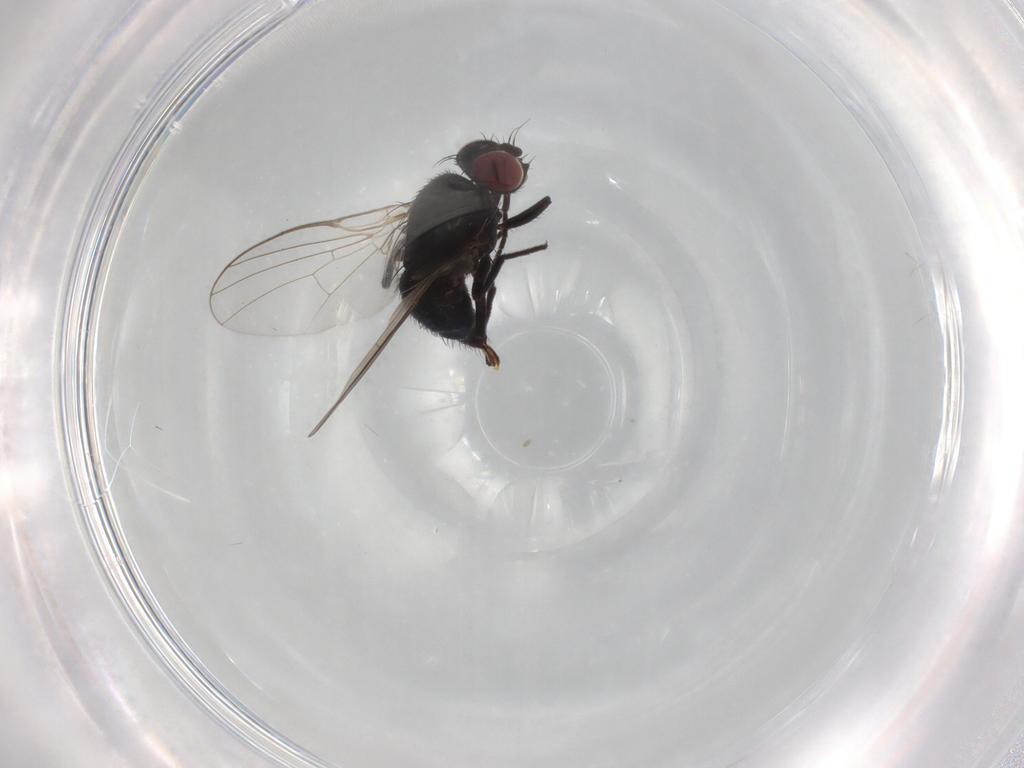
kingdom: Animalia
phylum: Arthropoda
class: Insecta
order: Diptera
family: Agromyzidae
